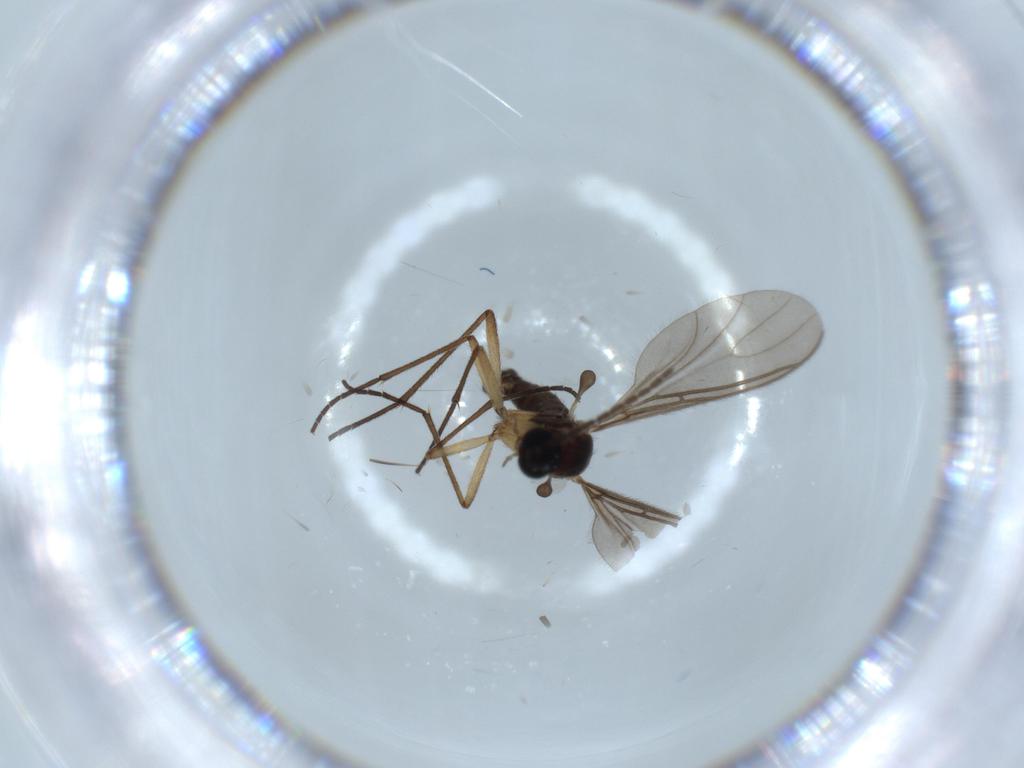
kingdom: Animalia
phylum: Arthropoda
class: Insecta
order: Diptera
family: Sciaridae
